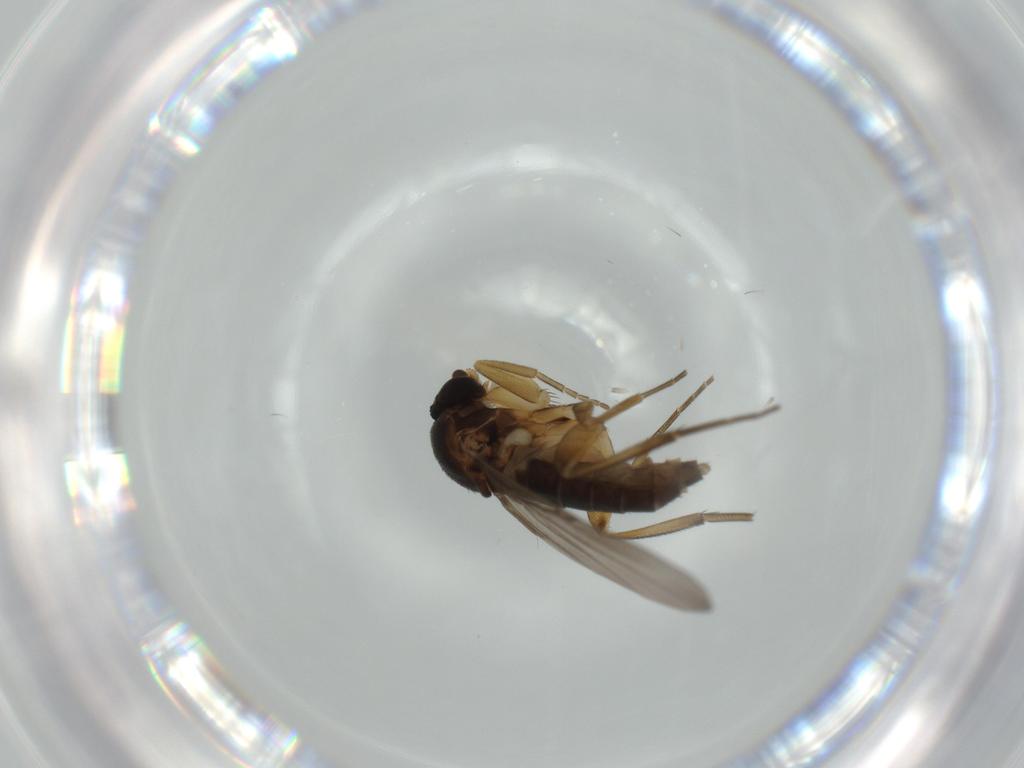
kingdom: Animalia
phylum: Arthropoda
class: Insecta
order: Diptera
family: Phoridae
